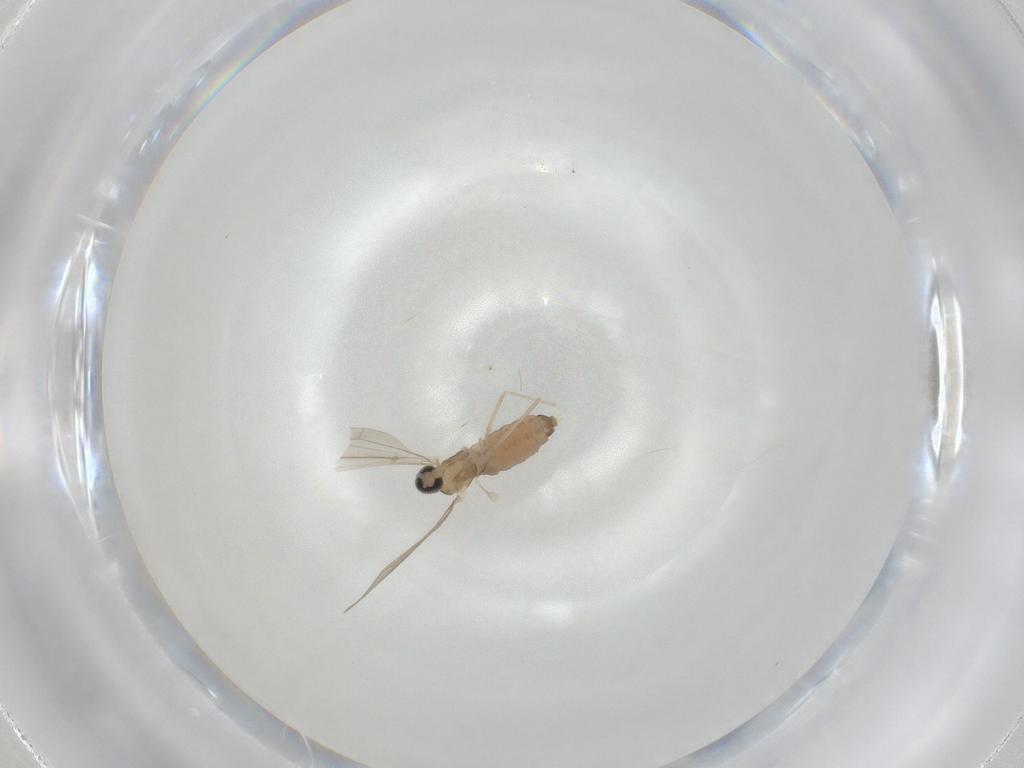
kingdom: Animalia
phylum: Arthropoda
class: Insecta
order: Diptera
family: Cecidomyiidae
